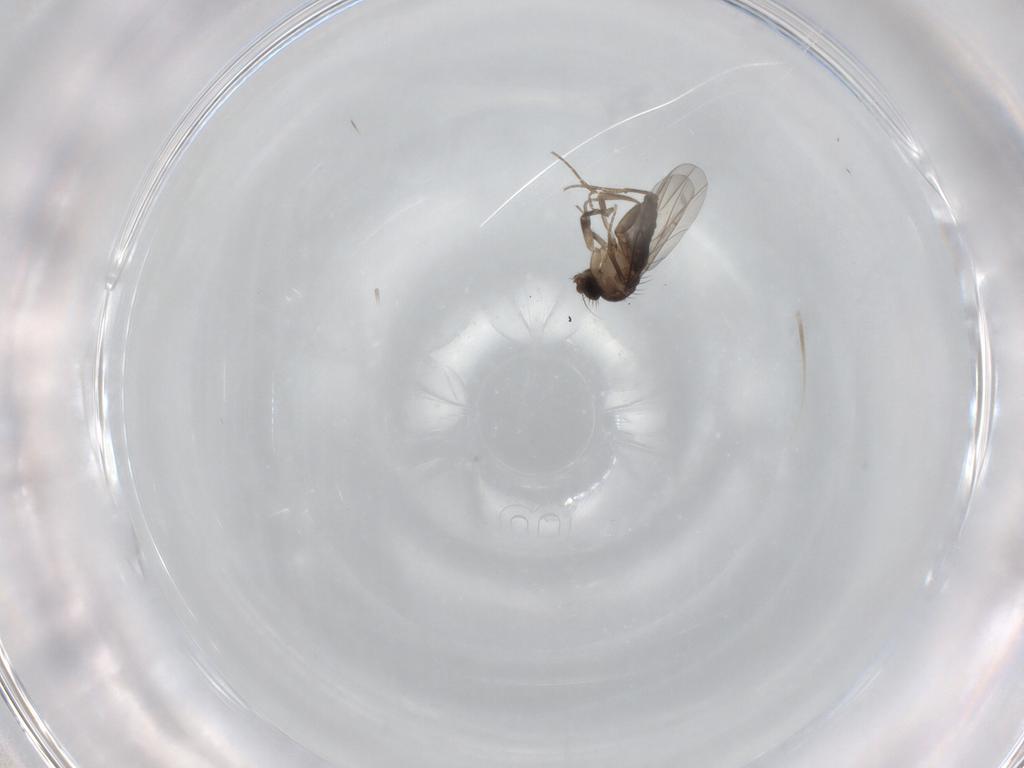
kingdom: Animalia
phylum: Arthropoda
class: Insecta
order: Diptera
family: Phoridae
